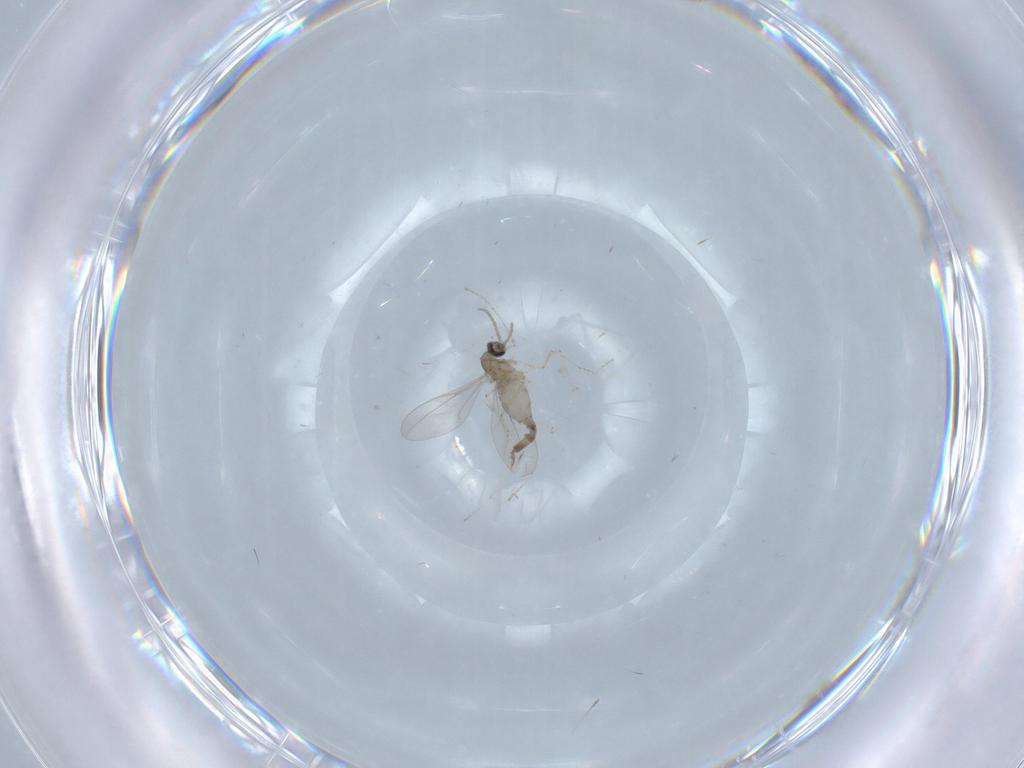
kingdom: Animalia
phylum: Arthropoda
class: Insecta
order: Diptera
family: Cecidomyiidae
